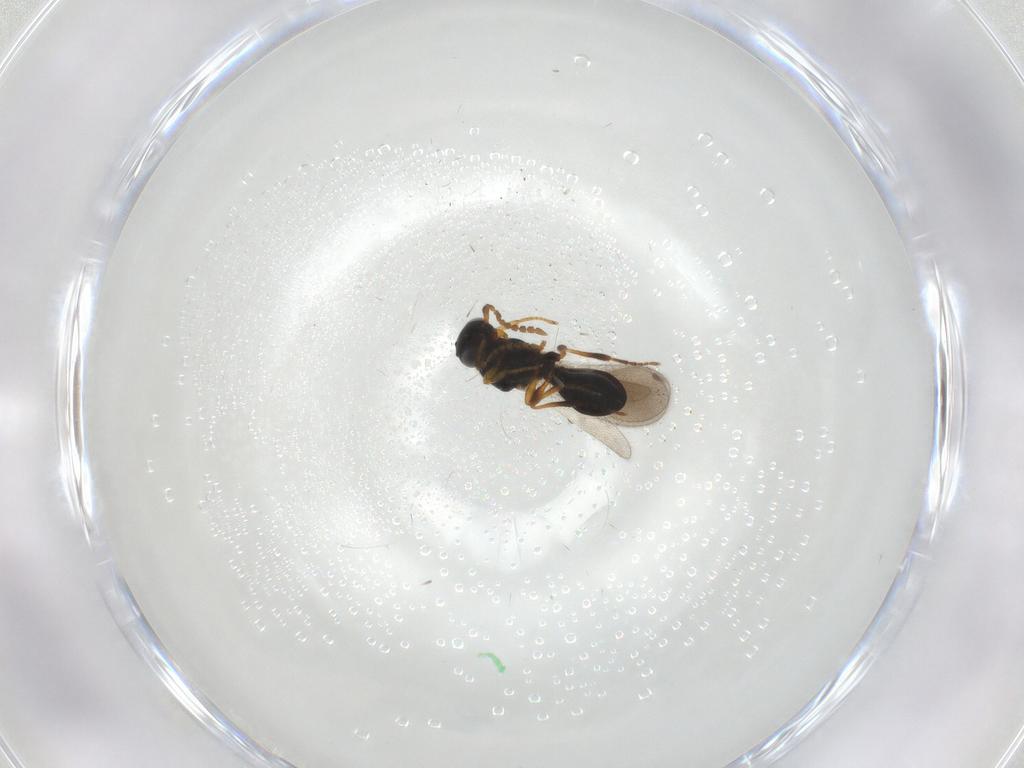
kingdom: Animalia
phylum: Arthropoda
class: Insecta
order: Hymenoptera
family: Platygastridae
